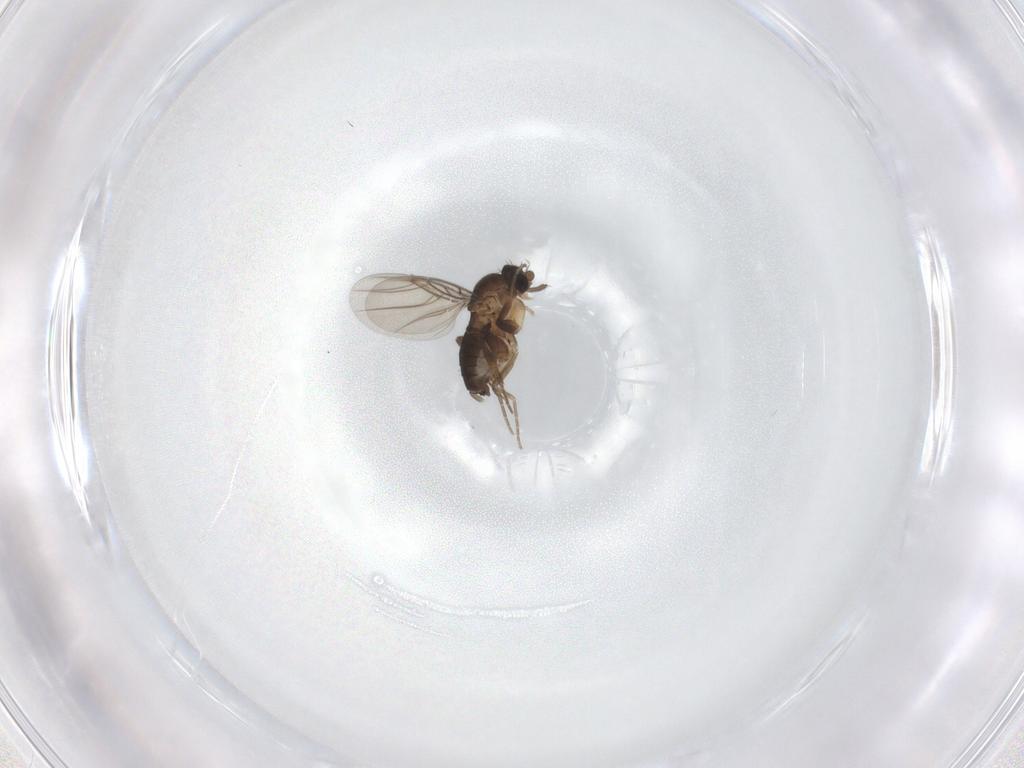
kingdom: Animalia
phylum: Arthropoda
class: Insecta
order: Diptera
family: Phoridae
